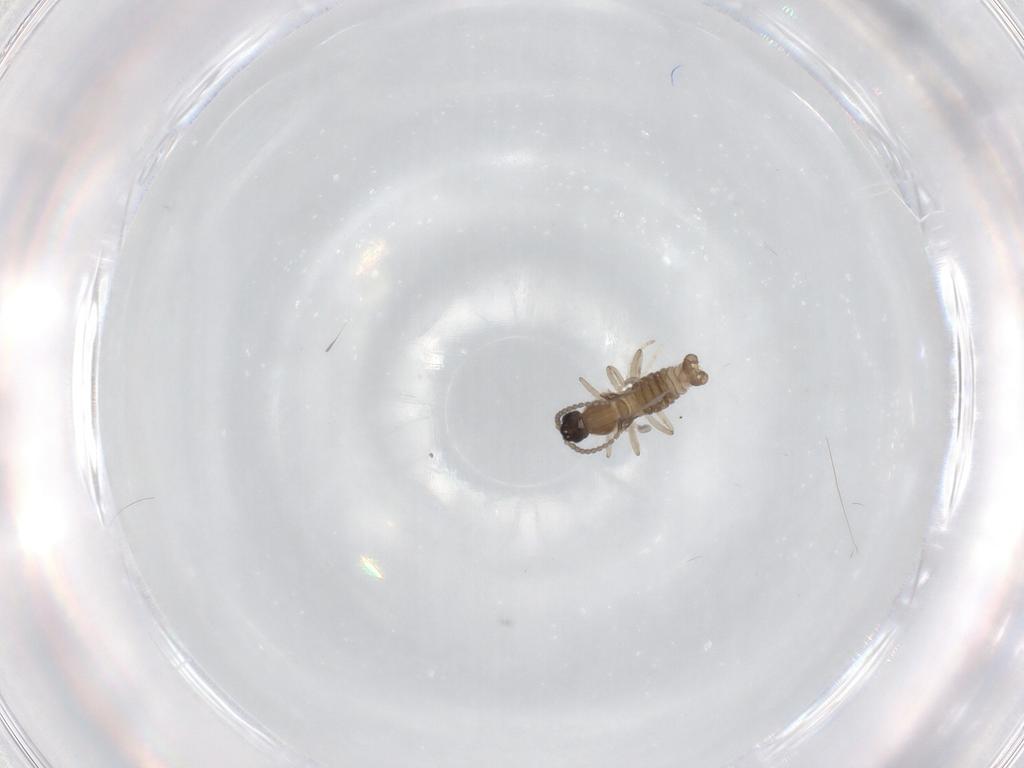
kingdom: Animalia
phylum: Arthropoda
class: Insecta
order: Diptera
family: Cecidomyiidae
